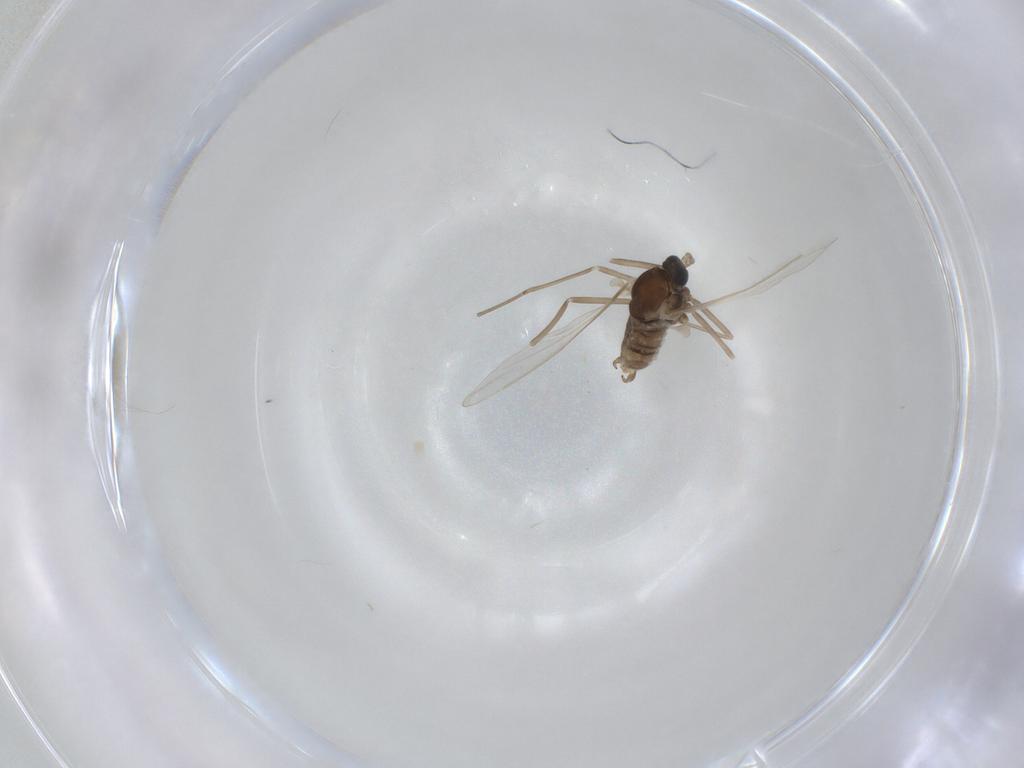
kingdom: Animalia
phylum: Arthropoda
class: Insecta
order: Diptera
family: Cecidomyiidae
